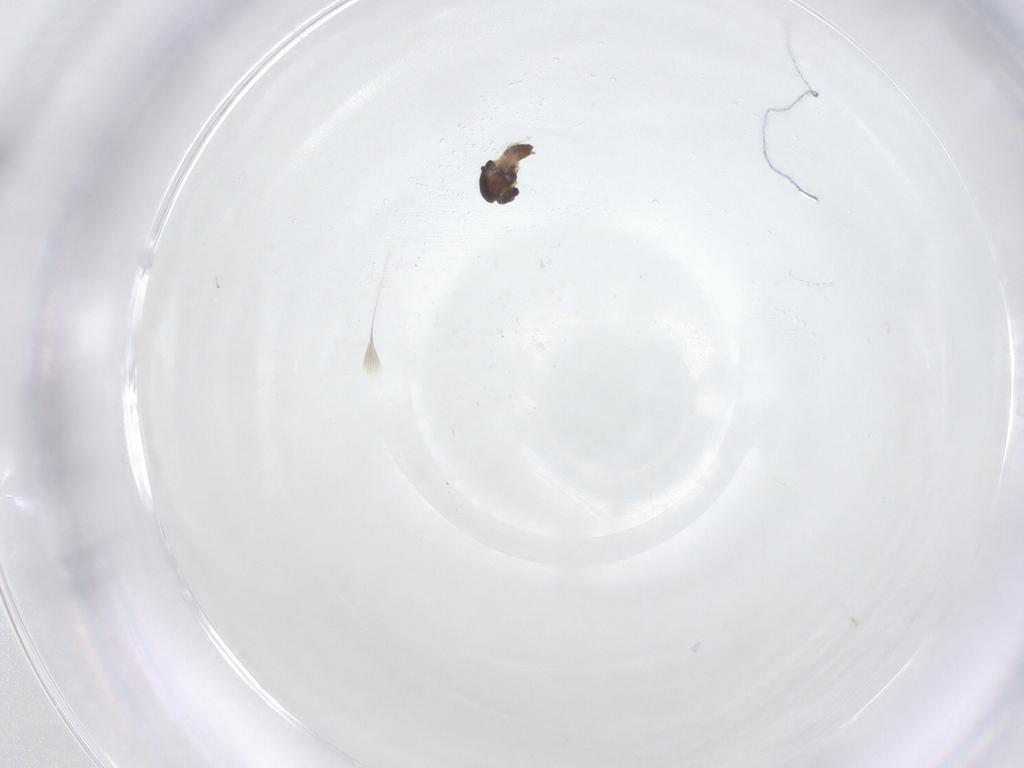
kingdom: Animalia
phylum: Arthropoda
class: Insecta
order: Diptera
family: Chironomidae
